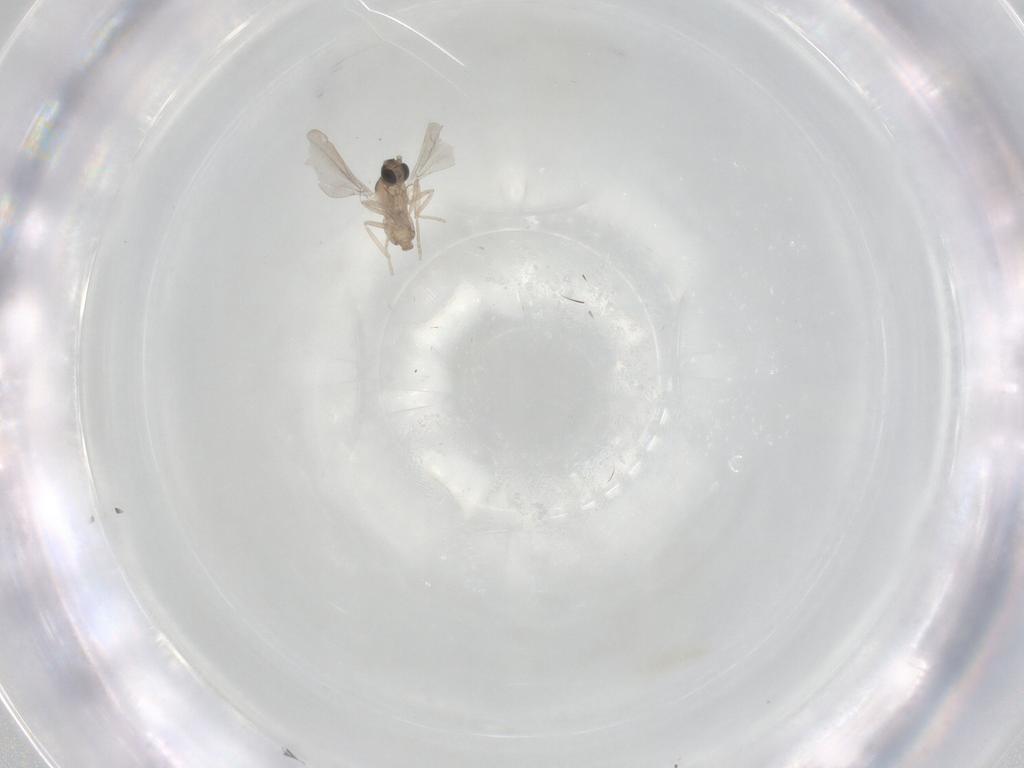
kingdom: Animalia
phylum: Arthropoda
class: Insecta
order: Diptera
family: Cecidomyiidae
